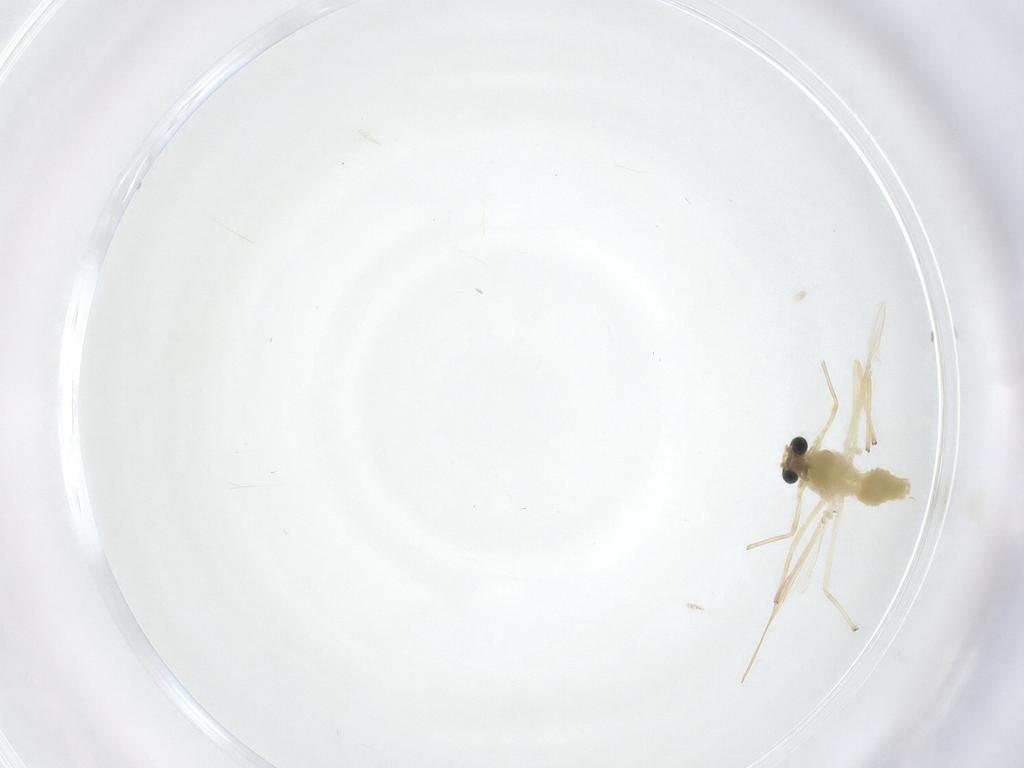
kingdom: Animalia
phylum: Arthropoda
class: Insecta
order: Diptera
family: Chironomidae
